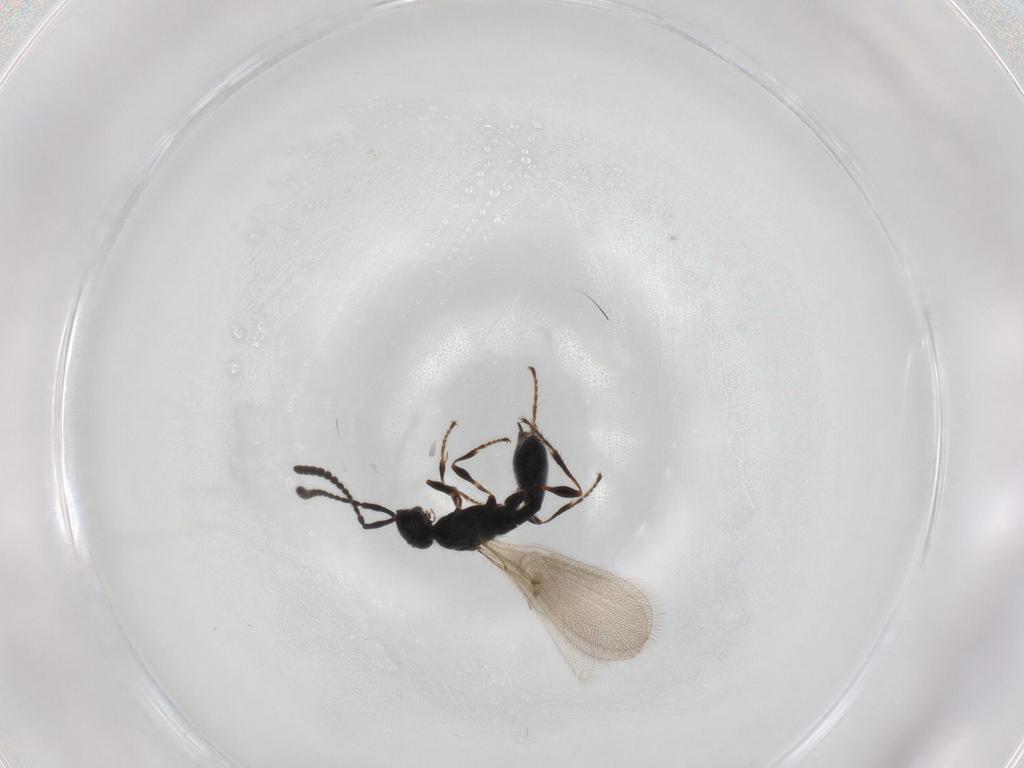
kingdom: Animalia
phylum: Arthropoda
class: Insecta
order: Hymenoptera
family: Diapriidae
